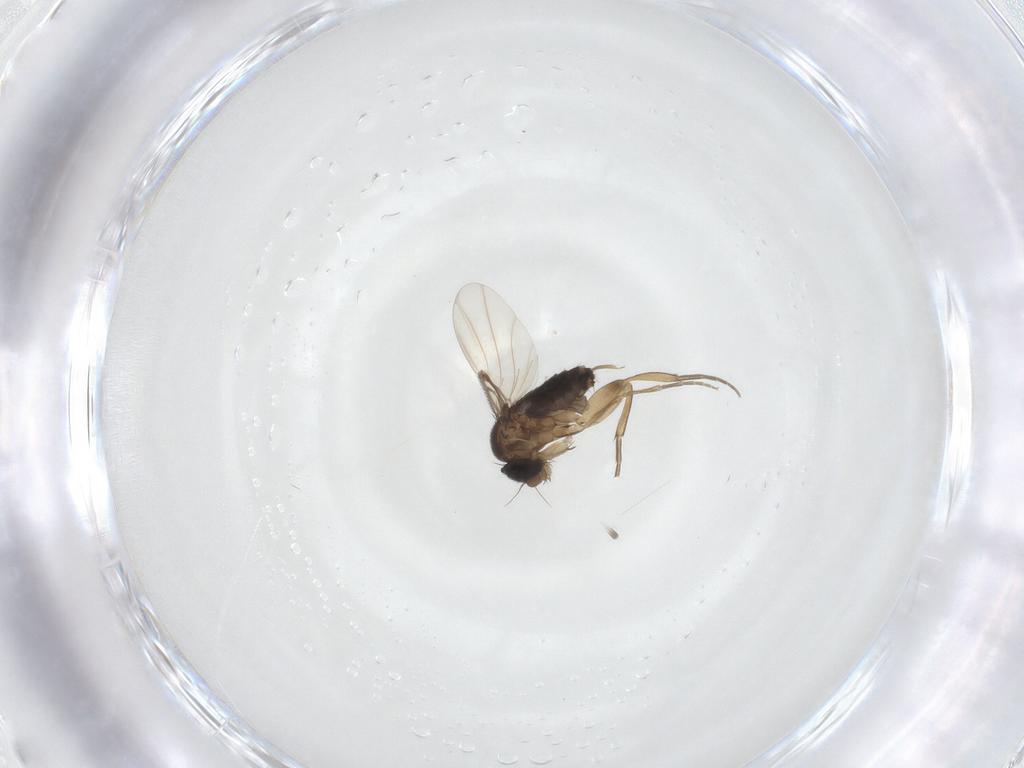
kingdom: Animalia
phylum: Arthropoda
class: Insecta
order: Diptera
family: Phoridae
